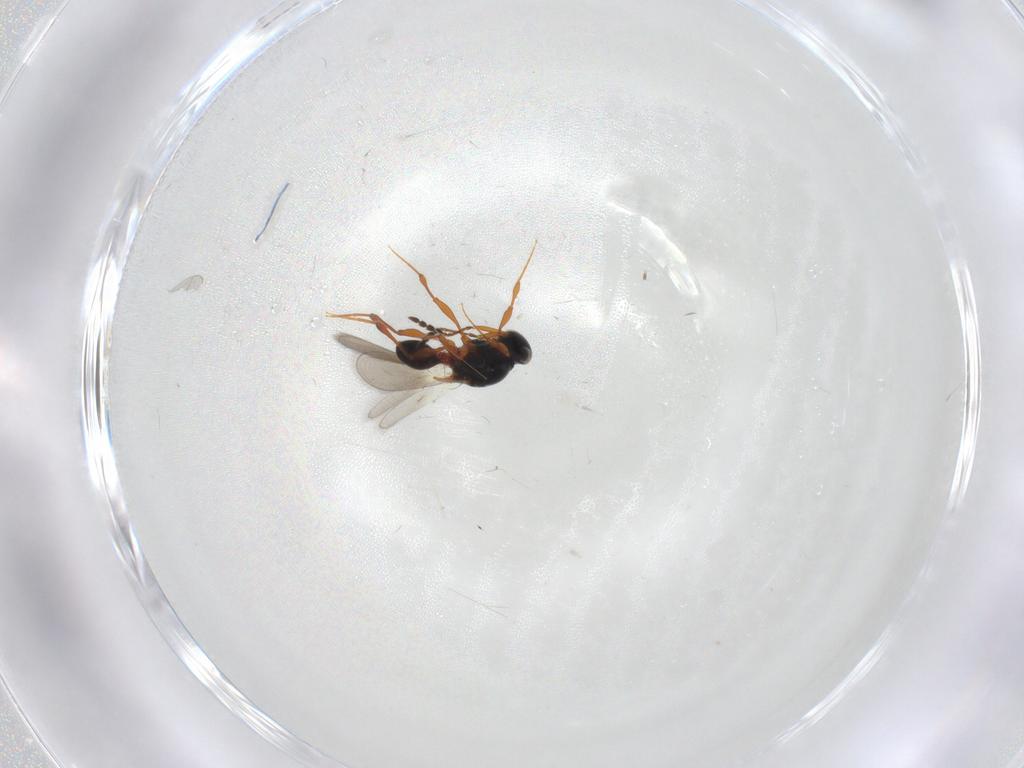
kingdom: Animalia
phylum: Arthropoda
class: Insecta
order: Hymenoptera
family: Platygastridae
